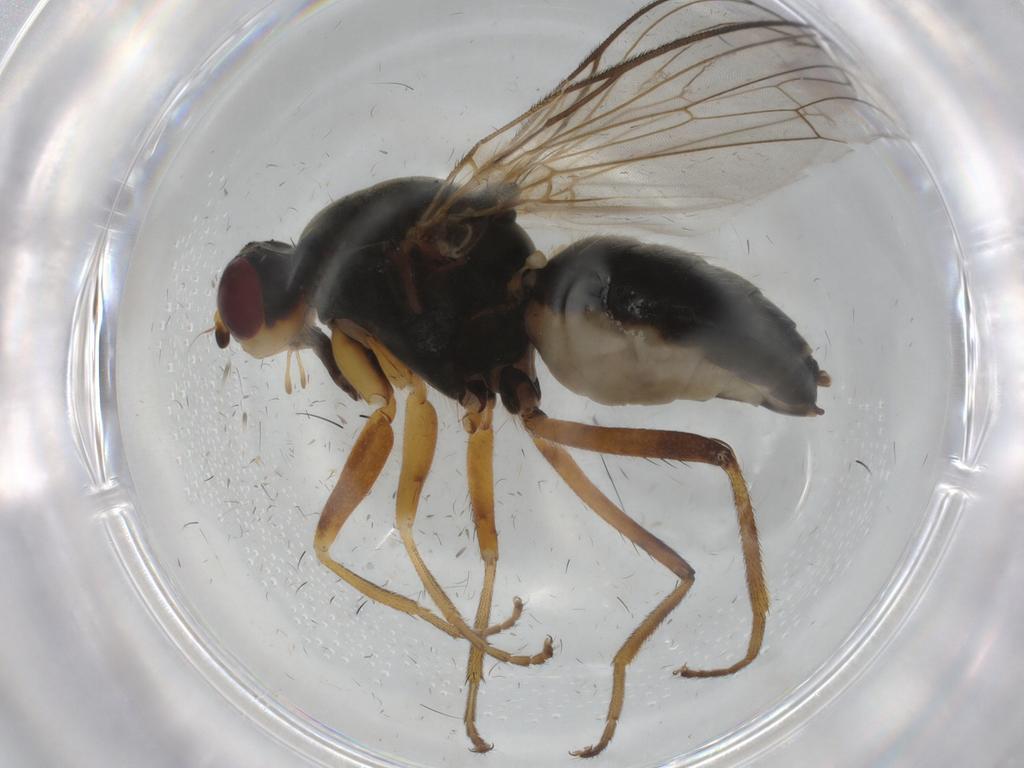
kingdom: Animalia
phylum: Arthropoda
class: Insecta
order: Diptera
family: Scathophagidae
